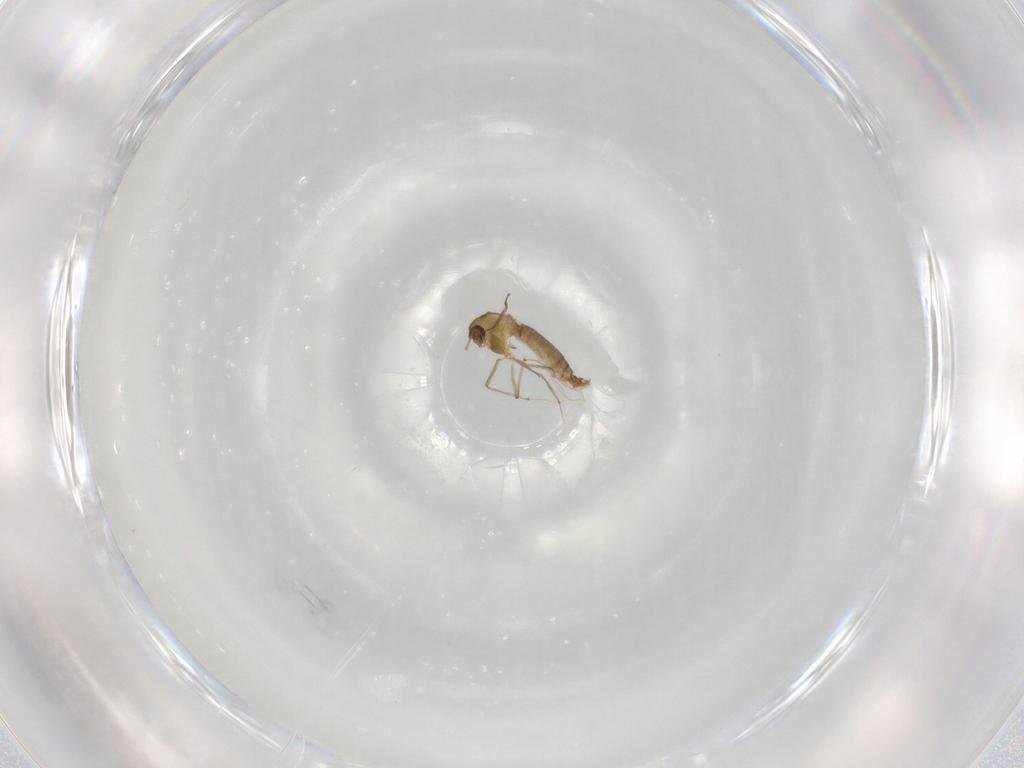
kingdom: Animalia
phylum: Arthropoda
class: Insecta
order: Diptera
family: Chironomidae
